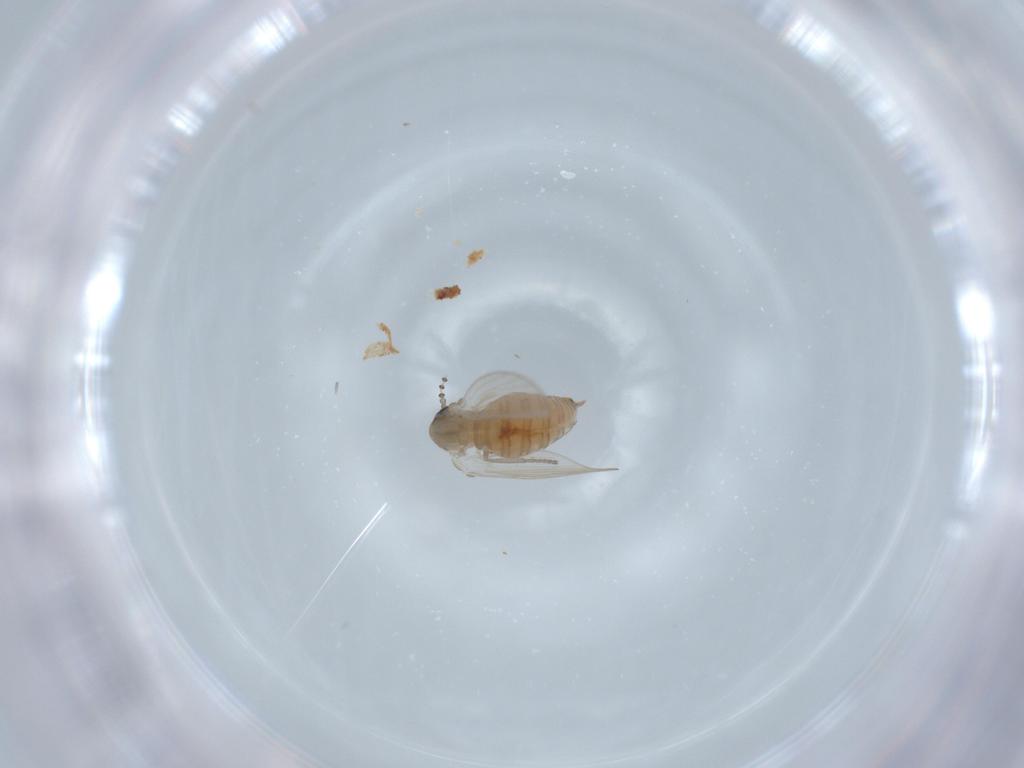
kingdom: Animalia
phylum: Arthropoda
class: Insecta
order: Diptera
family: Psychodidae
